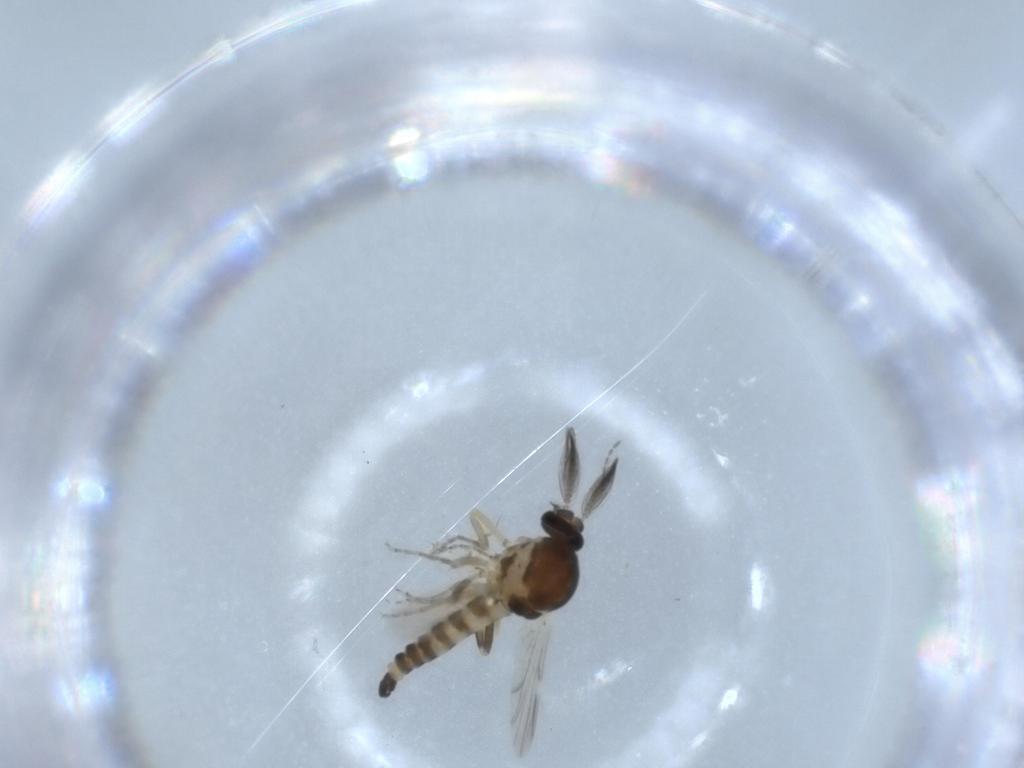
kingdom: Animalia
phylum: Arthropoda
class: Insecta
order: Diptera
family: Ceratopogonidae
